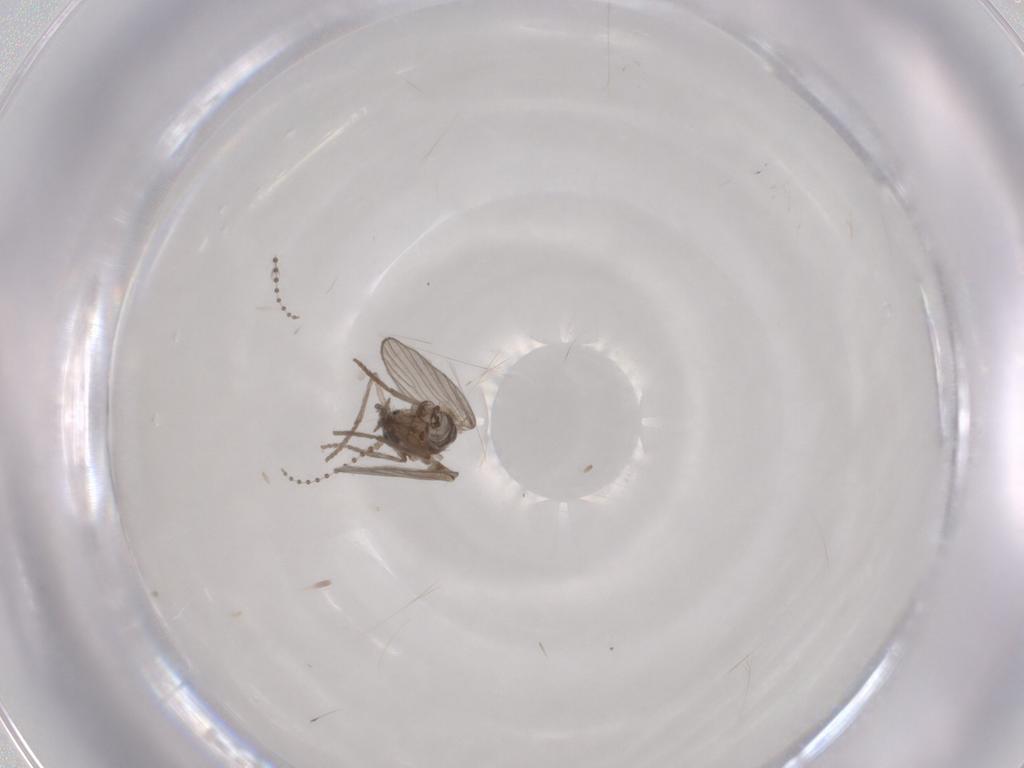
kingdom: Animalia
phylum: Arthropoda
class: Insecta
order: Diptera
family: Psychodidae
